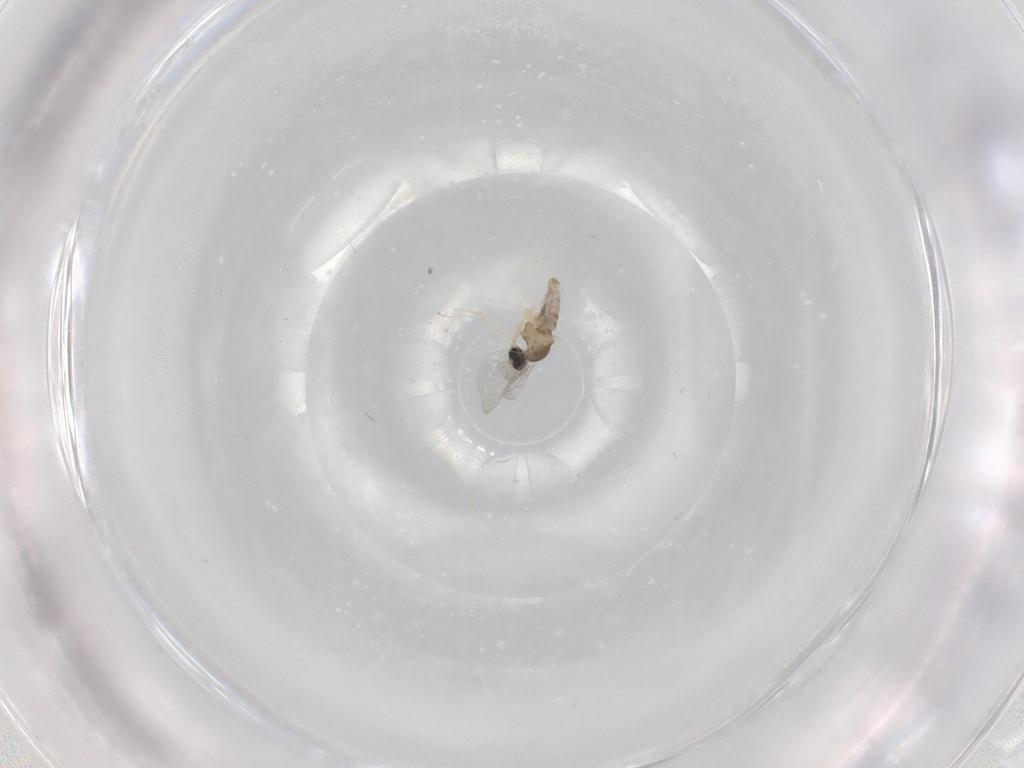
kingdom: Animalia
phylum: Arthropoda
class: Insecta
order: Diptera
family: Cecidomyiidae
